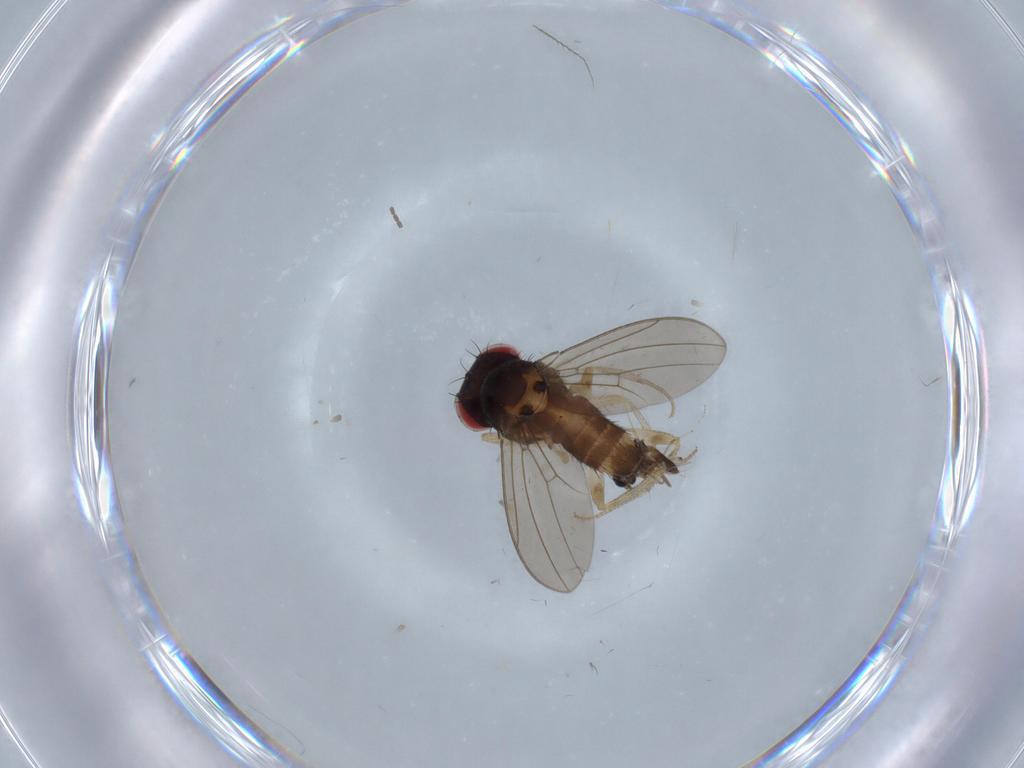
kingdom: Animalia
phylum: Arthropoda
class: Insecta
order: Diptera
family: Drosophilidae
